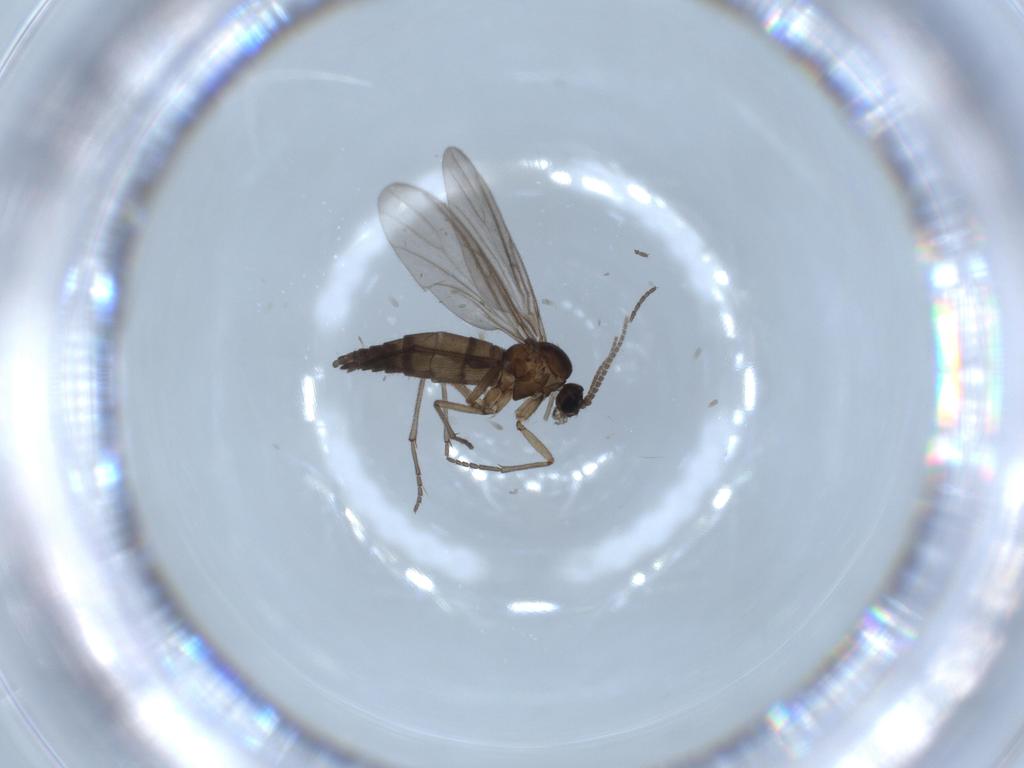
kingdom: Animalia
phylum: Arthropoda
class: Insecta
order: Diptera
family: Sciaridae
